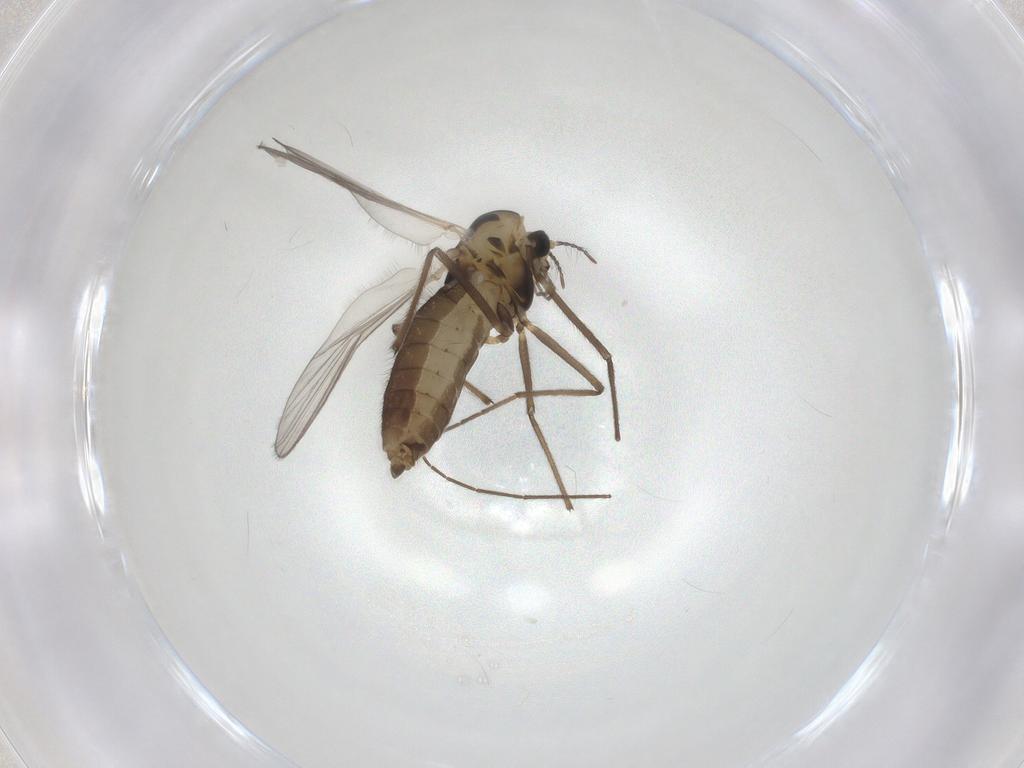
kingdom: Animalia
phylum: Arthropoda
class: Insecta
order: Diptera
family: Chironomidae
